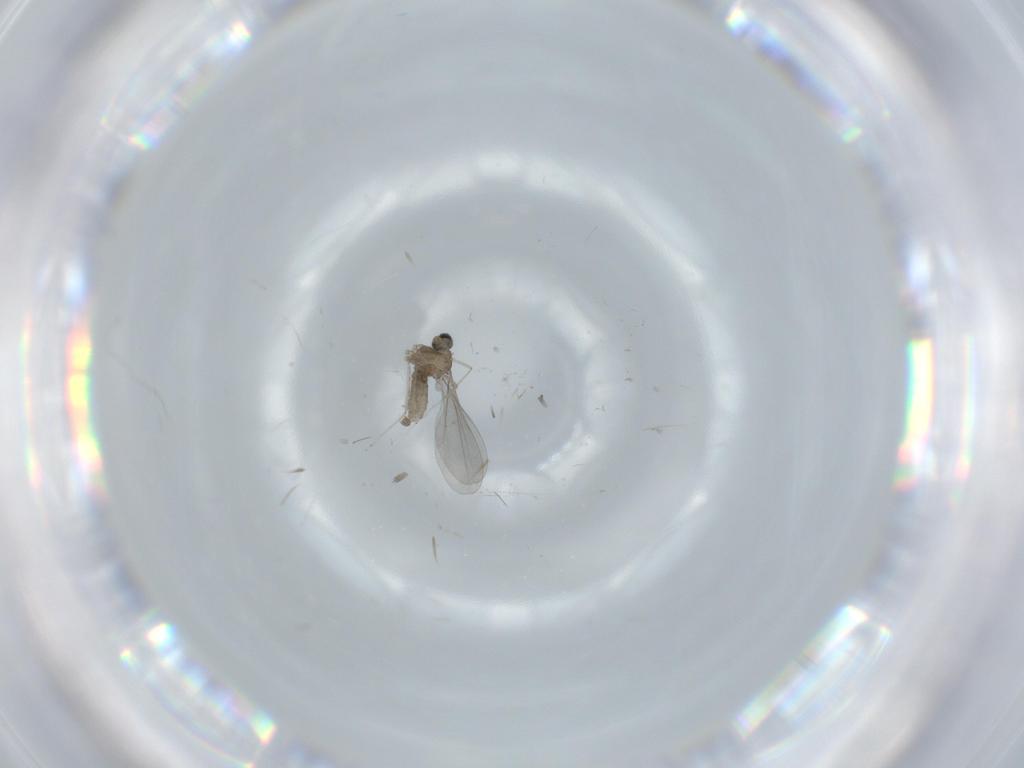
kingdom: Animalia
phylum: Arthropoda
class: Insecta
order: Diptera
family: Cecidomyiidae
